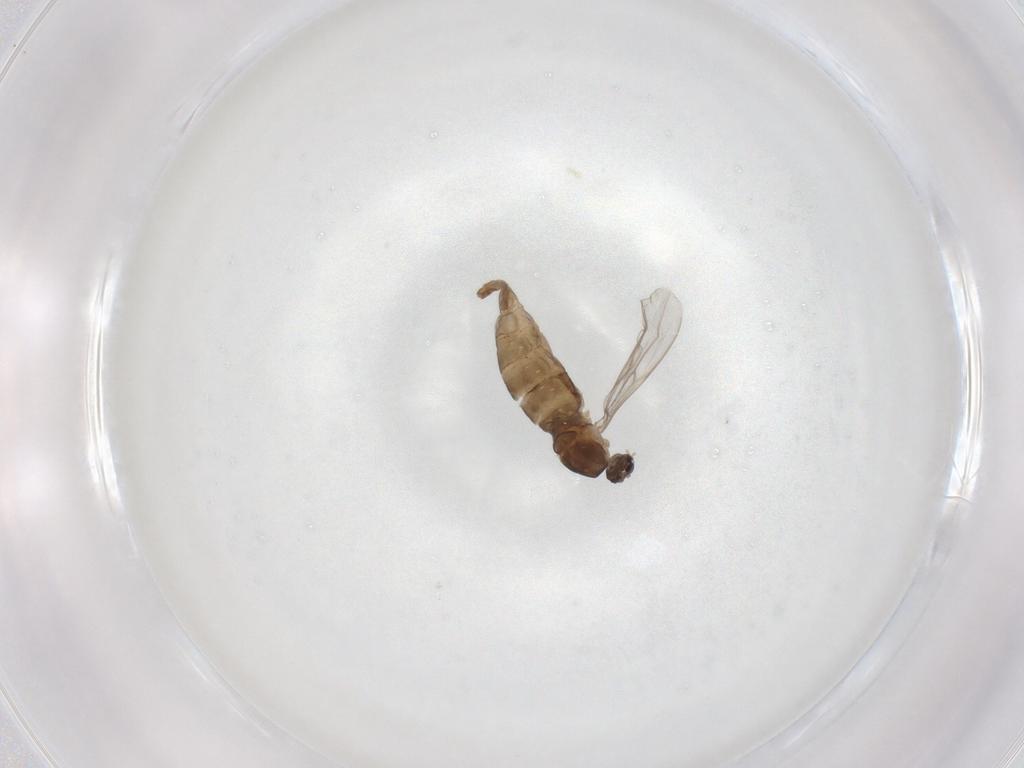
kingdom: Animalia
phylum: Arthropoda
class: Insecta
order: Diptera
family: Cecidomyiidae
